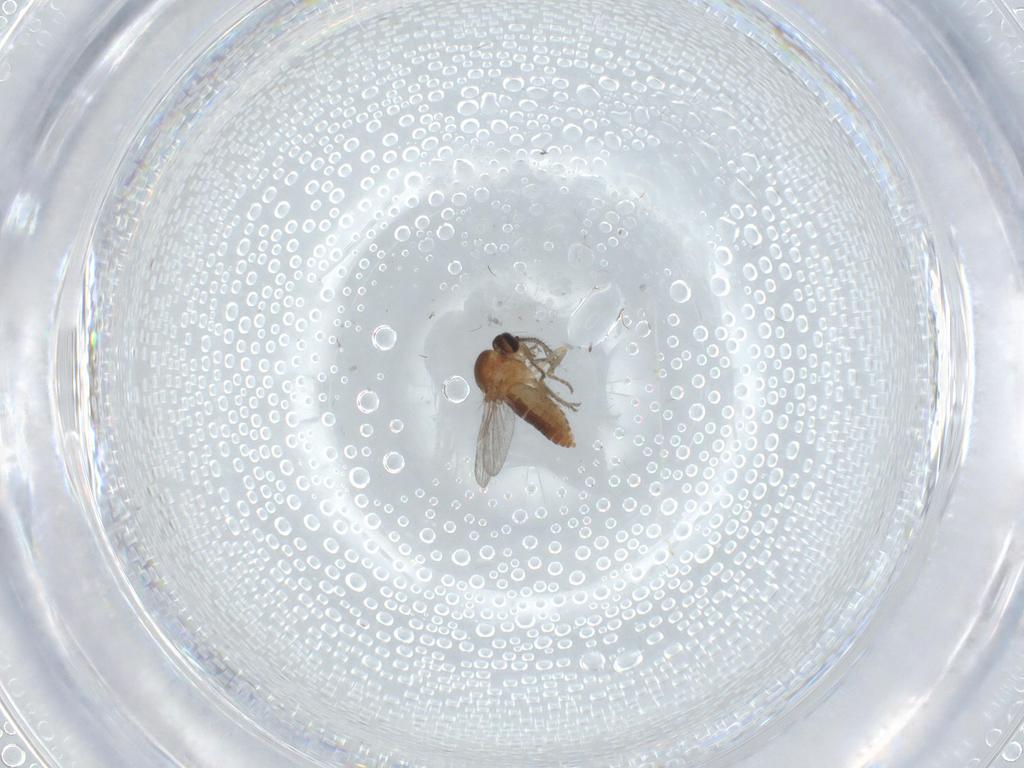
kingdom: Animalia
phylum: Arthropoda
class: Insecta
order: Diptera
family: Ceratopogonidae
